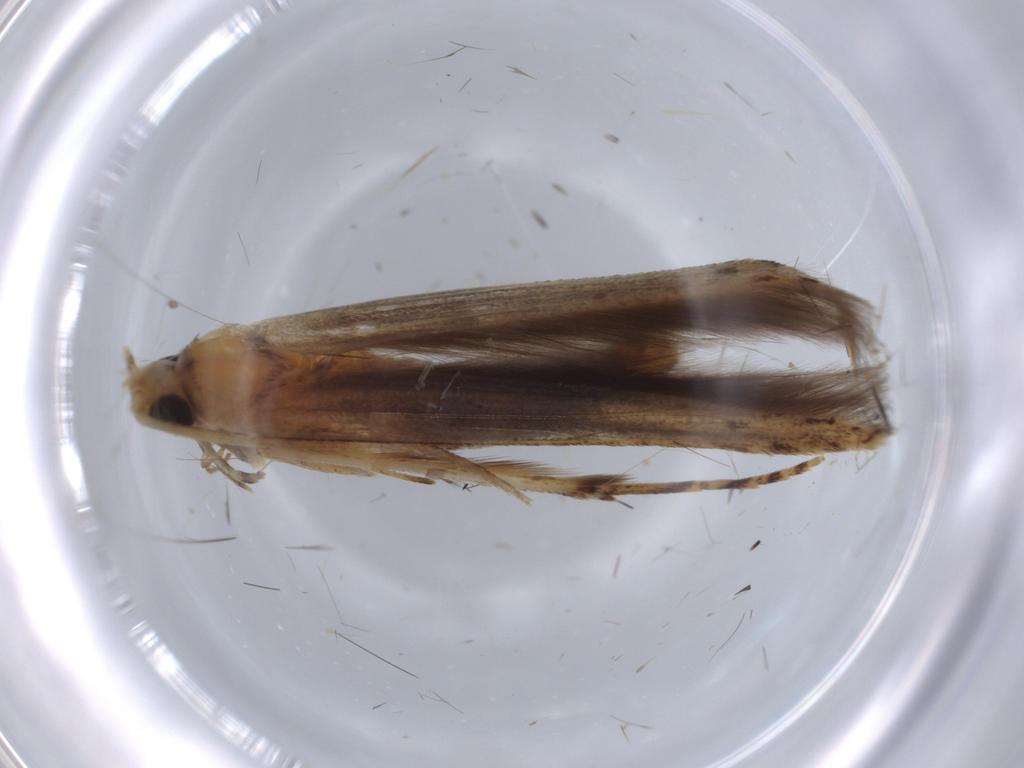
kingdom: Animalia
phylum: Arthropoda
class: Insecta
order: Lepidoptera
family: Batrachedridae
